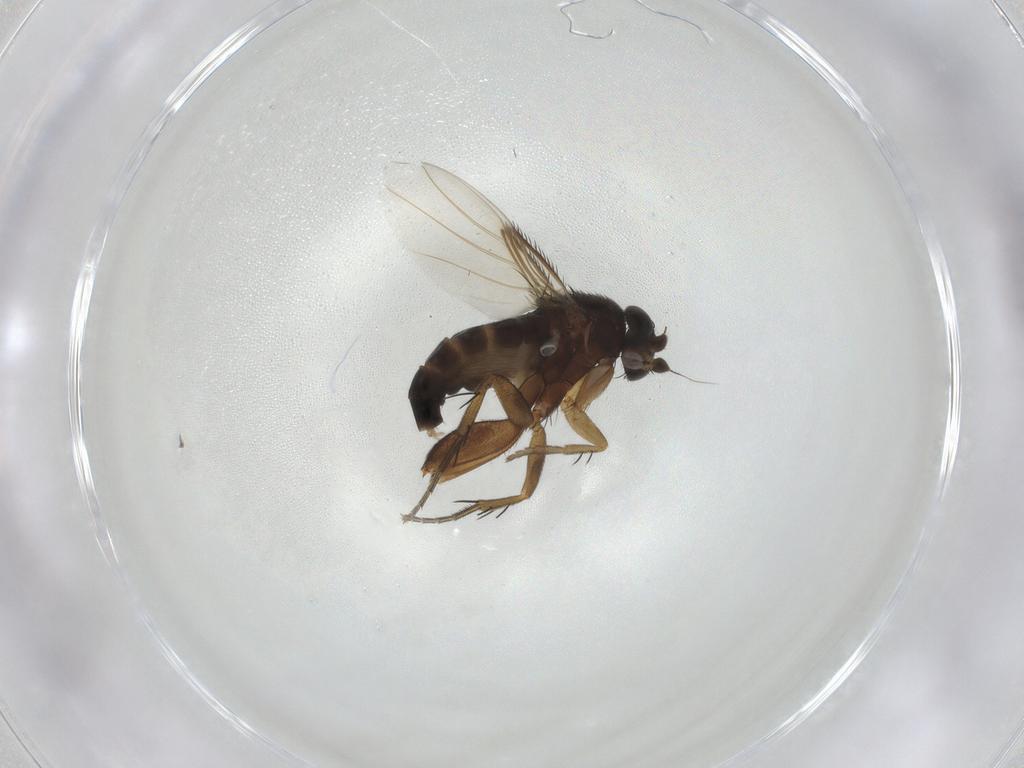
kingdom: Animalia
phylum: Arthropoda
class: Insecta
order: Diptera
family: Phoridae
